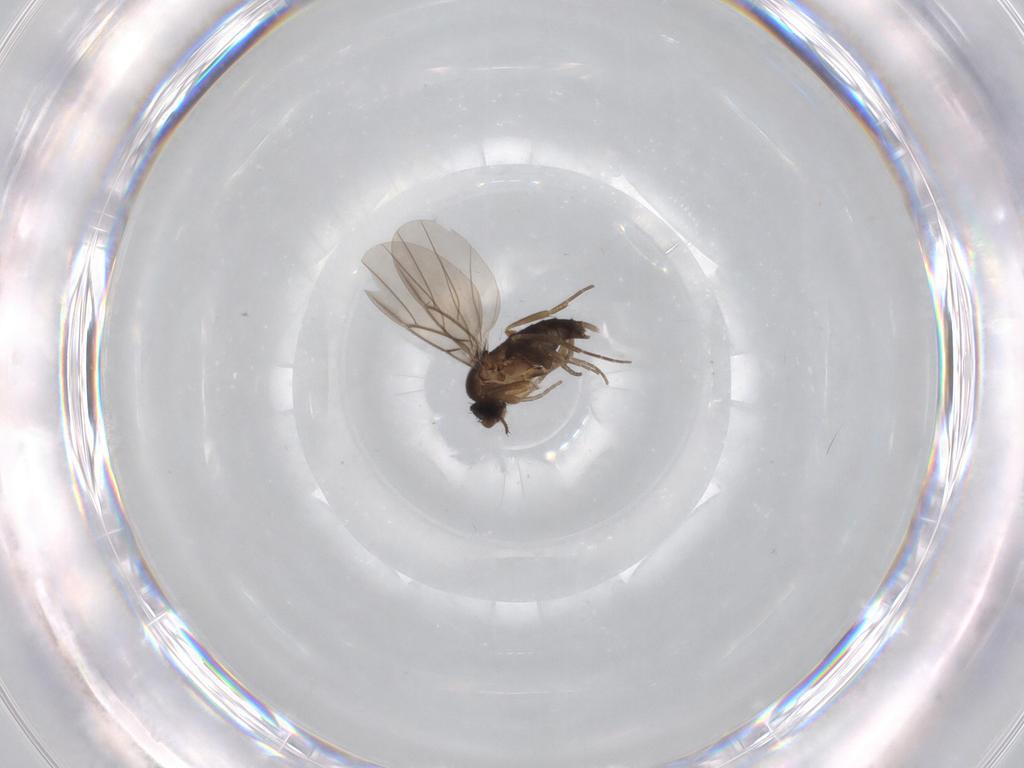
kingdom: Animalia
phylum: Arthropoda
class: Insecta
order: Diptera
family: Phoridae
